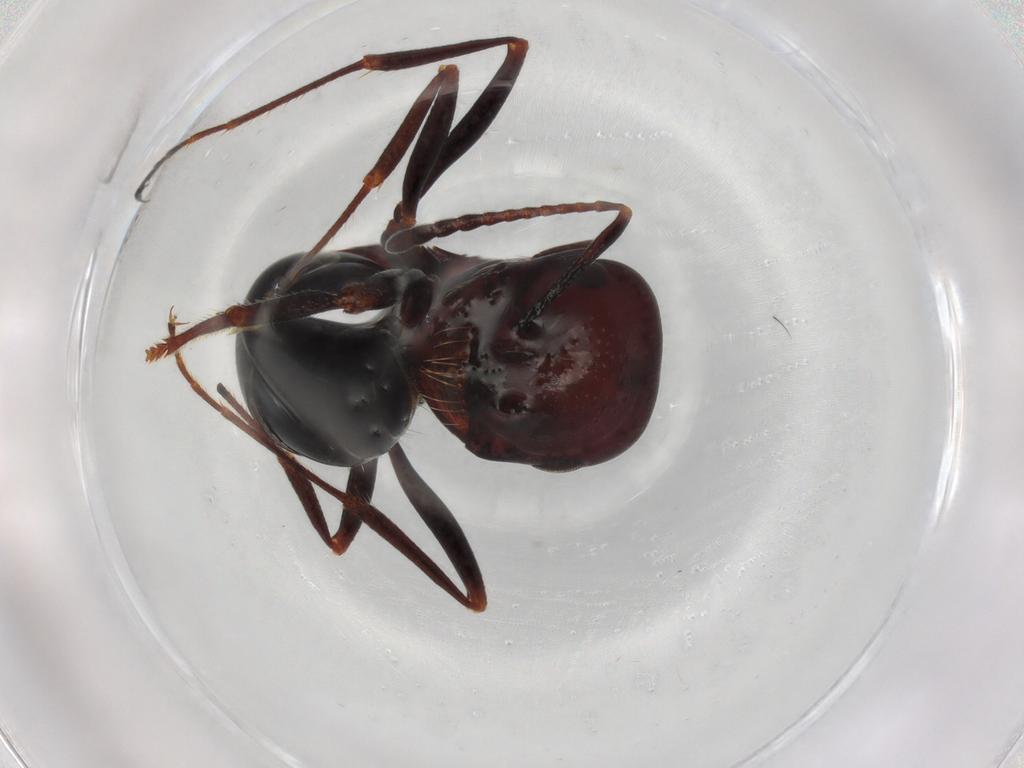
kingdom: Animalia
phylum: Arthropoda
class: Insecta
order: Hymenoptera
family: Formicidae
